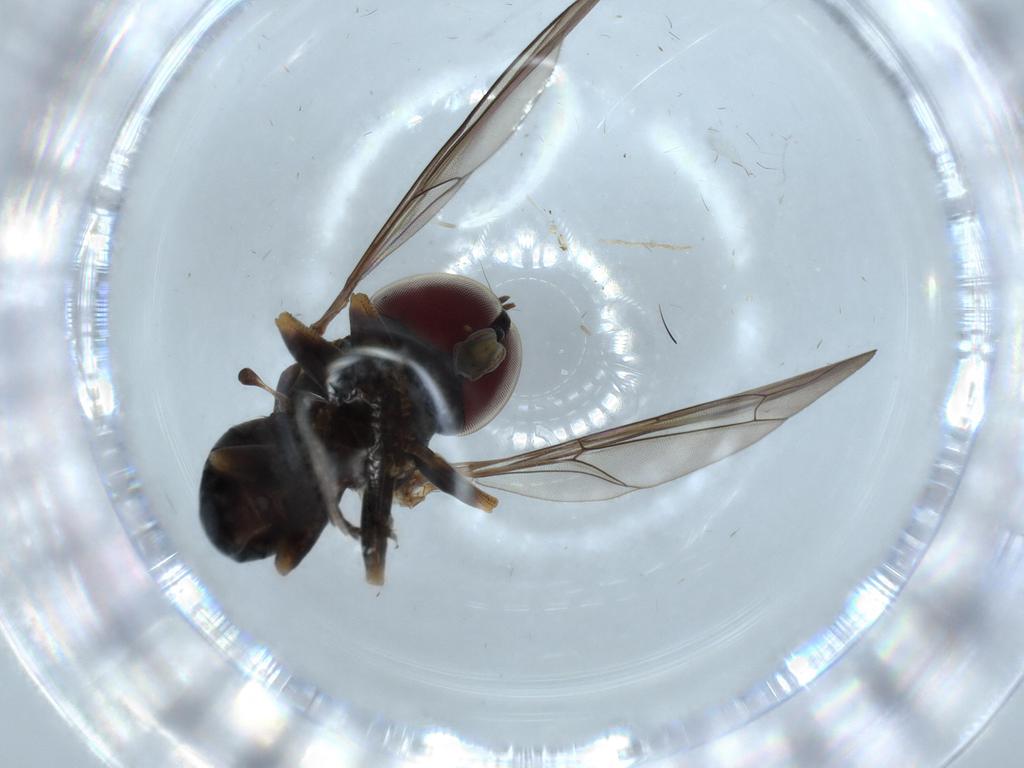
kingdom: Animalia
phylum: Arthropoda
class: Insecta
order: Diptera
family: Sciaridae
